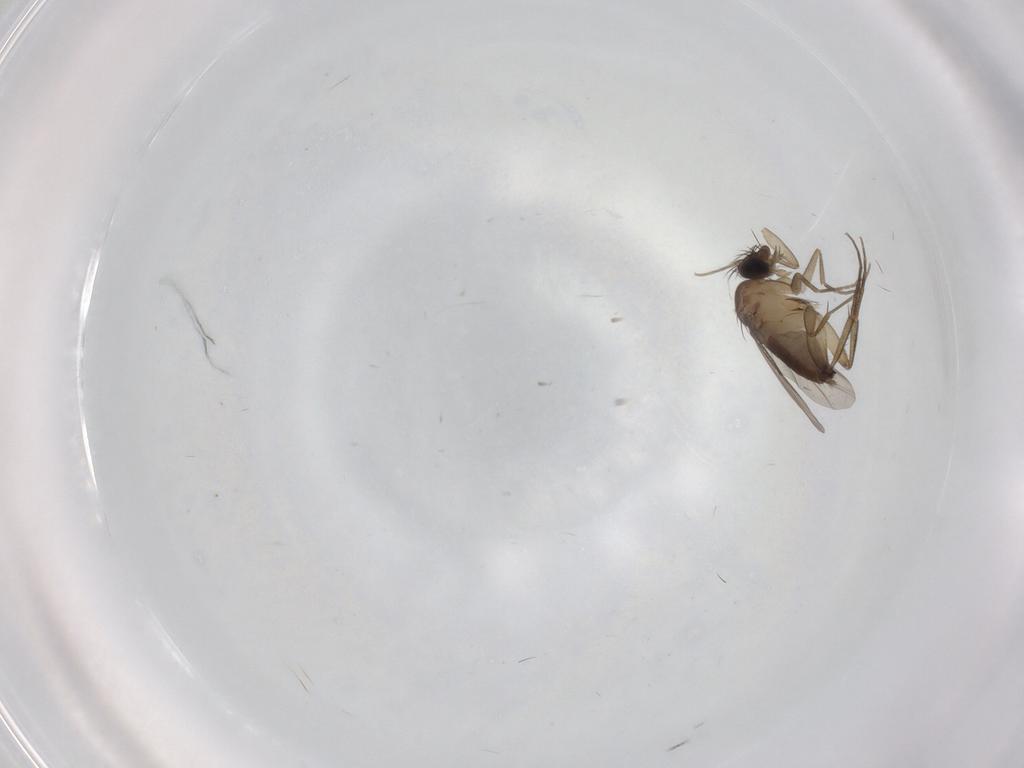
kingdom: Animalia
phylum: Arthropoda
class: Insecta
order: Diptera
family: Phoridae
